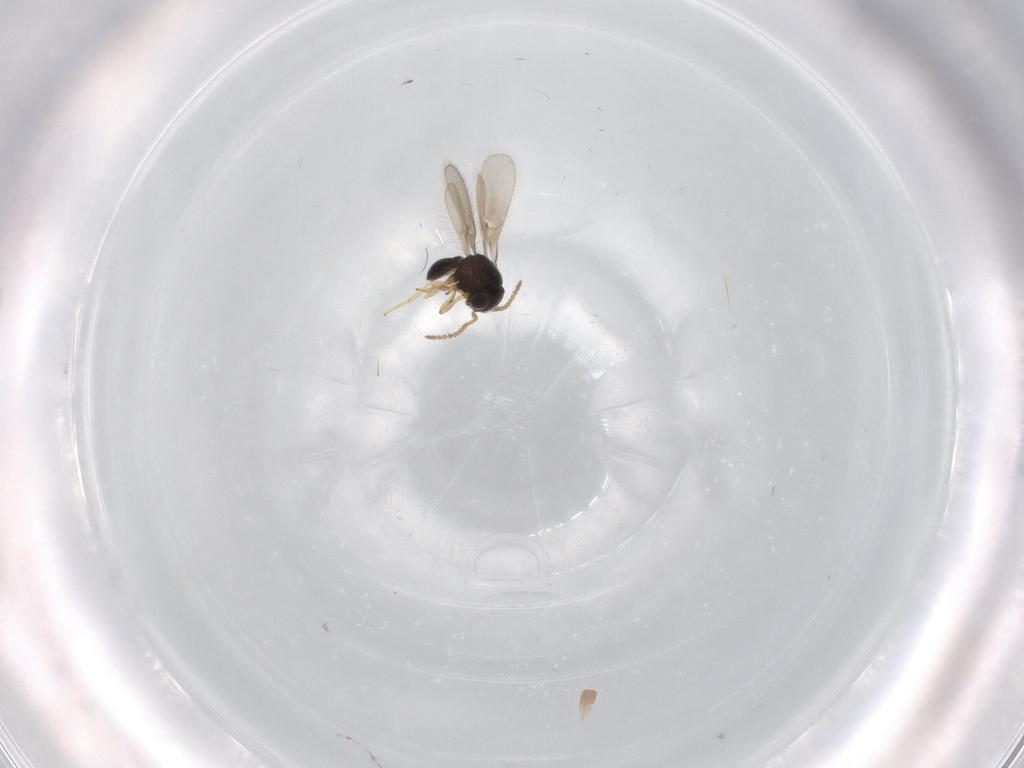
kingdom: Animalia
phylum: Arthropoda
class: Insecta
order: Hymenoptera
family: Scelionidae
